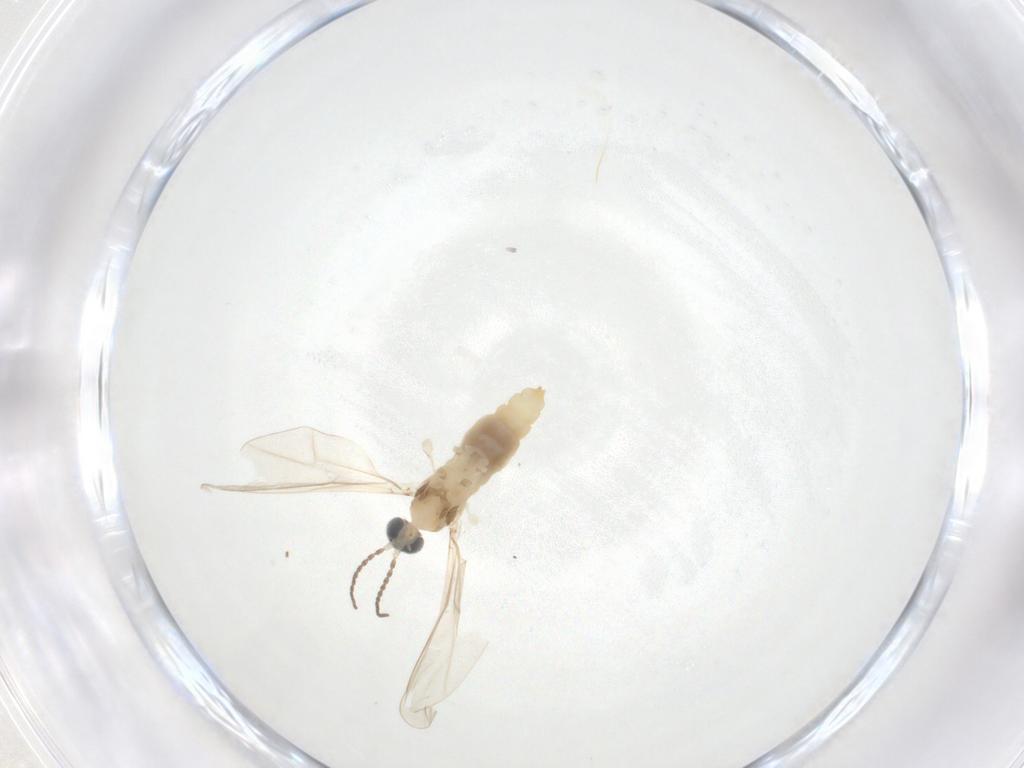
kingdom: Animalia
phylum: Arthropoda
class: Insecta
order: Diptera
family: Cecidomyiidae
